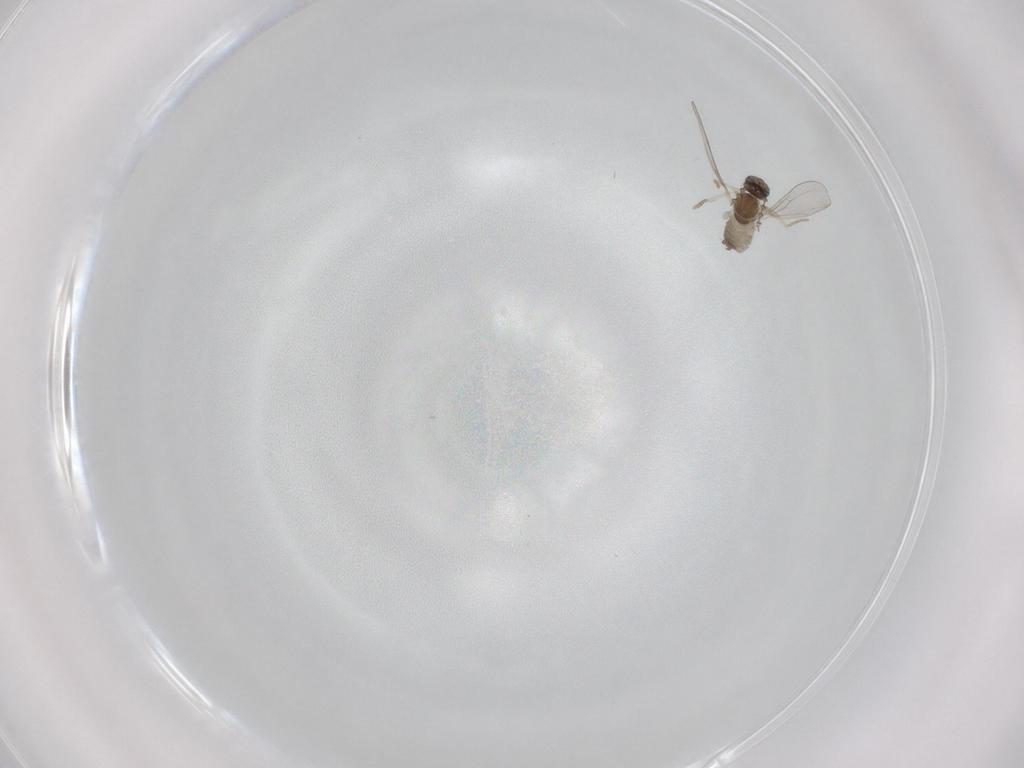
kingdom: Animalia
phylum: Arthropoda
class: Insecta
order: Diptera
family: Cecidomyiidae
